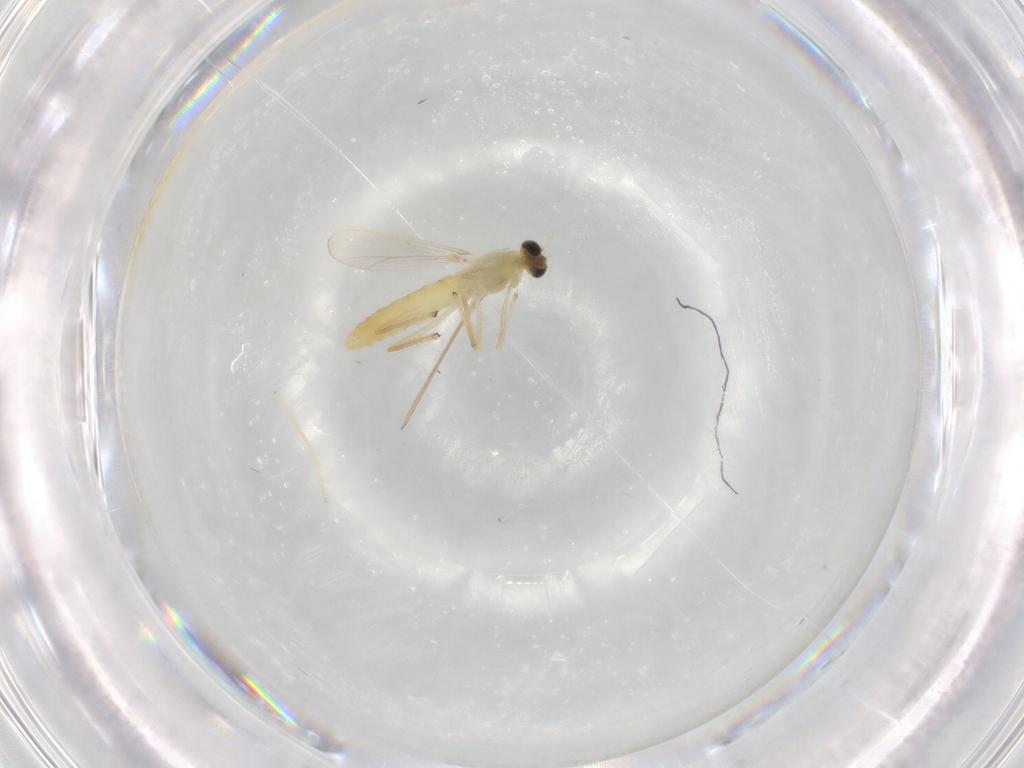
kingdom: Animalia
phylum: Arthropoda
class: Insecta
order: Diptera
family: Chironomidae
